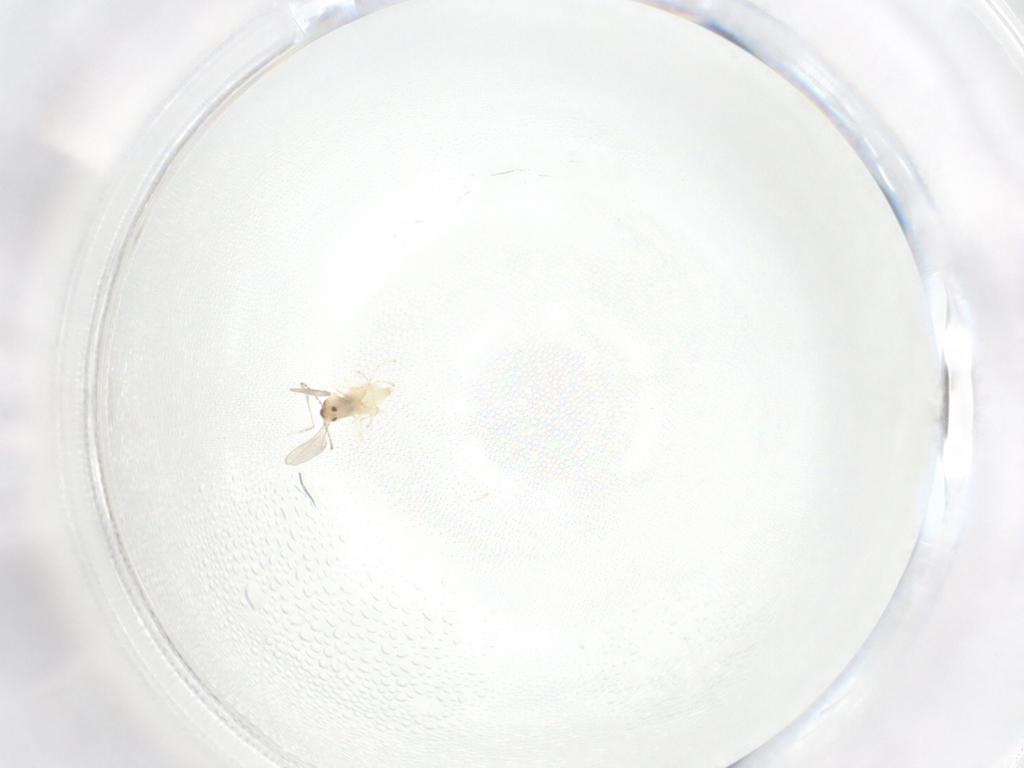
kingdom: Animalia
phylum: Arthropoda
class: Insecta
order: Diptera
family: Cecidomyiidae
